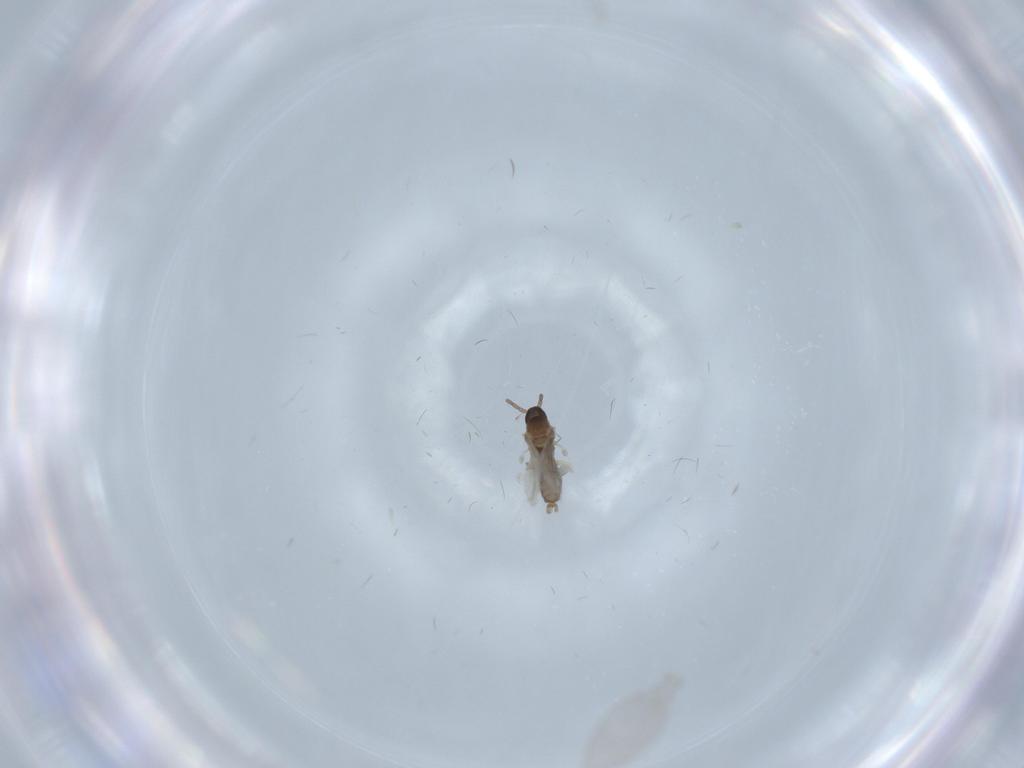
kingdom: Animalia
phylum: Arthropoda
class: Insecta
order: Diptera
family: Cecidomyiidae
